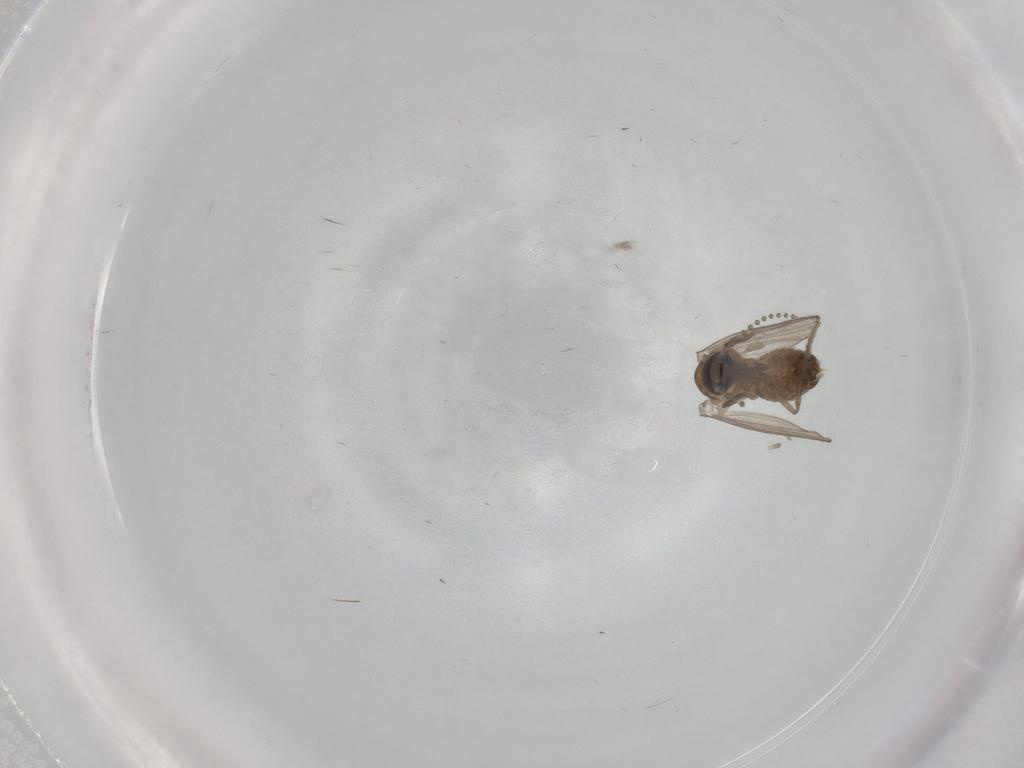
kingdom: Animalia
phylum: Arthropoda
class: Insecta
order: Diptera
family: Psychodidae
